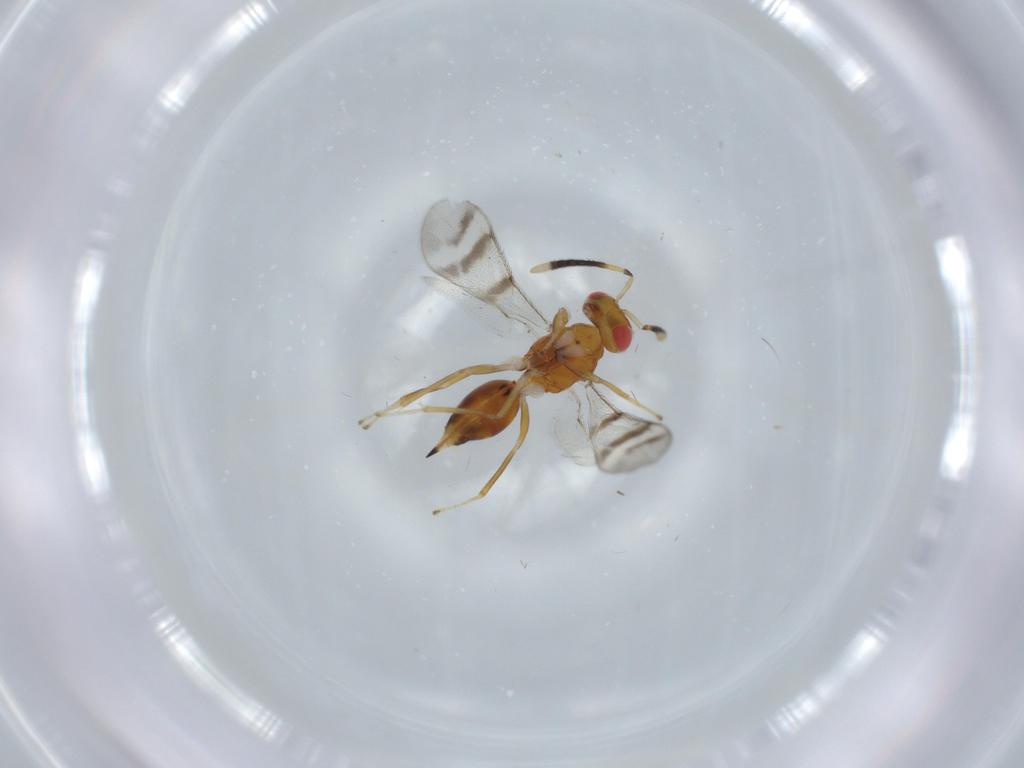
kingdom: Animalia
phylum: Arthropoda
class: Insecta
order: Hymenoptera
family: Diparidae
